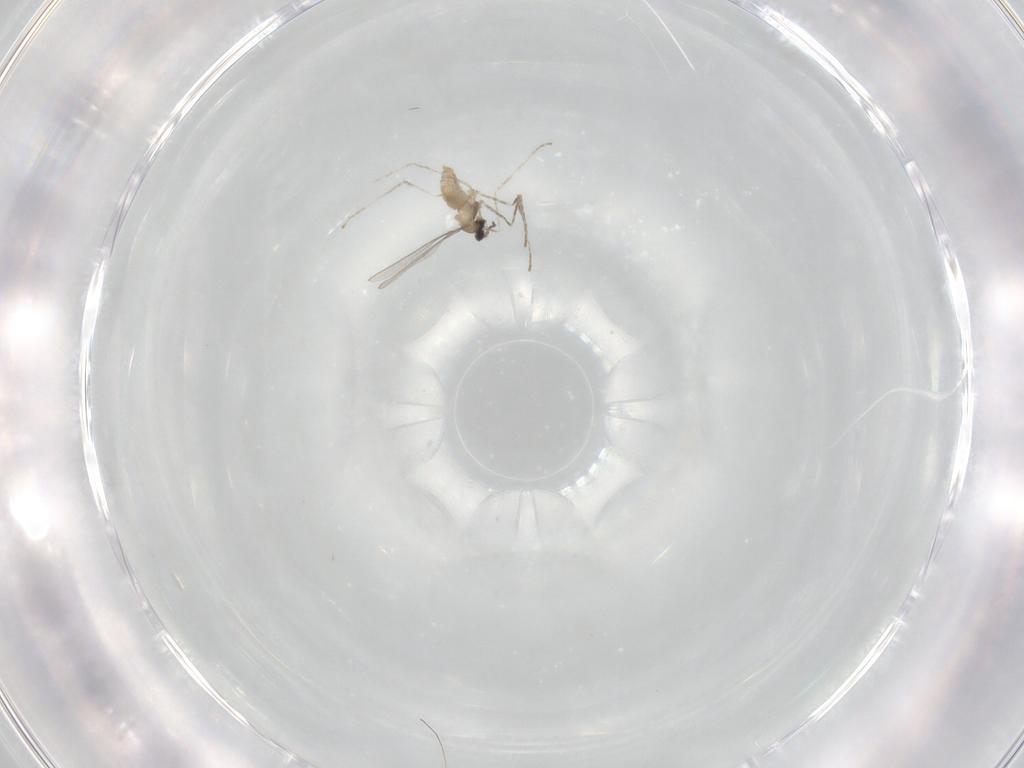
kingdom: Animalia
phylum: Arthropoda
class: Insecta
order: Diptera
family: Cecidomyiidae
